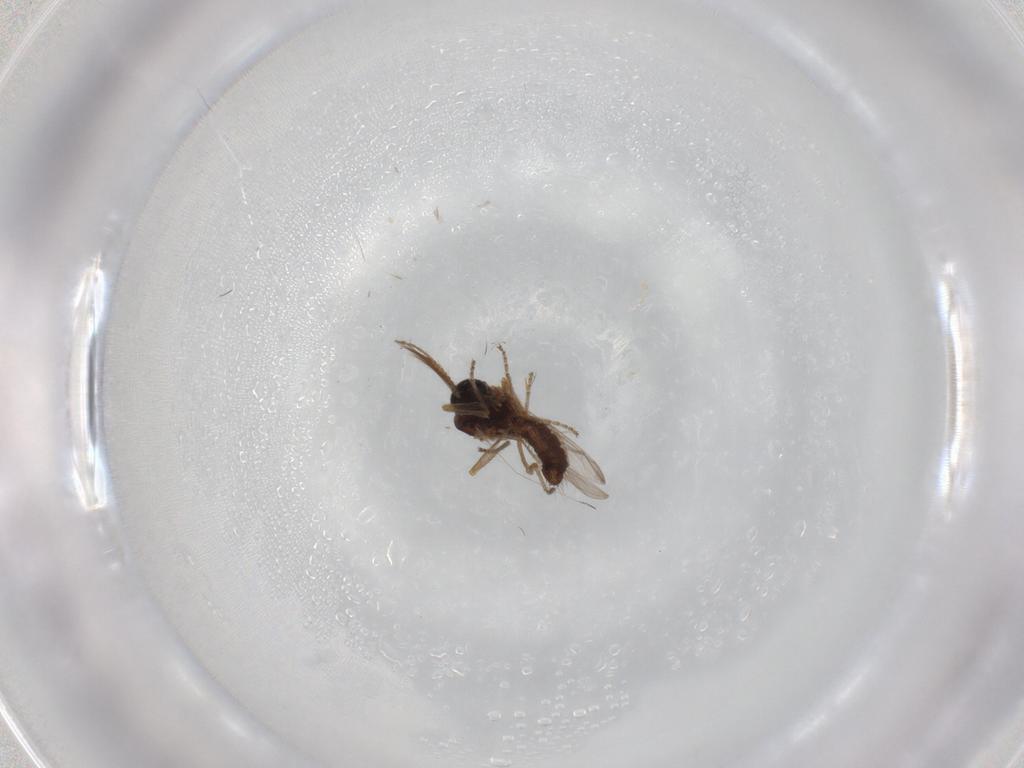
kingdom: Animalia
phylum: Arthropoda
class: Insecta
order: Diptera
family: Ceratopogonidae
